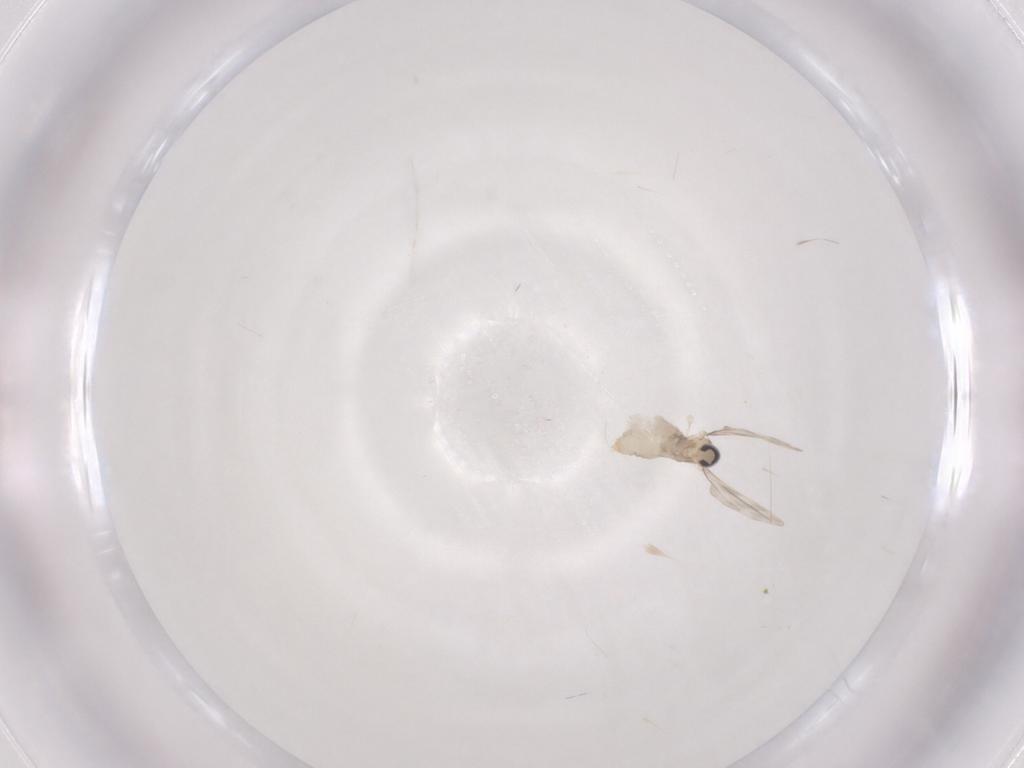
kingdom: Animalia
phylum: Arthropoda
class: Insecta
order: Diptera
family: Cecidomyiidae
